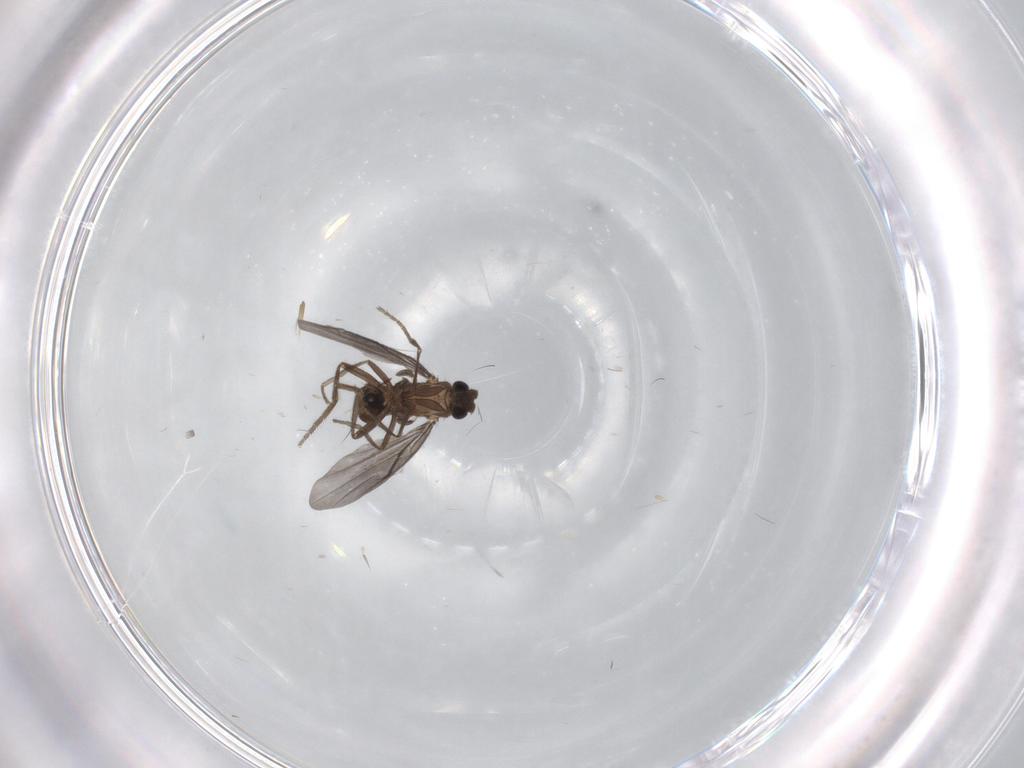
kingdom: Animalia
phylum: Arthropoda
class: Insecta
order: Diptera
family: Phoridae
